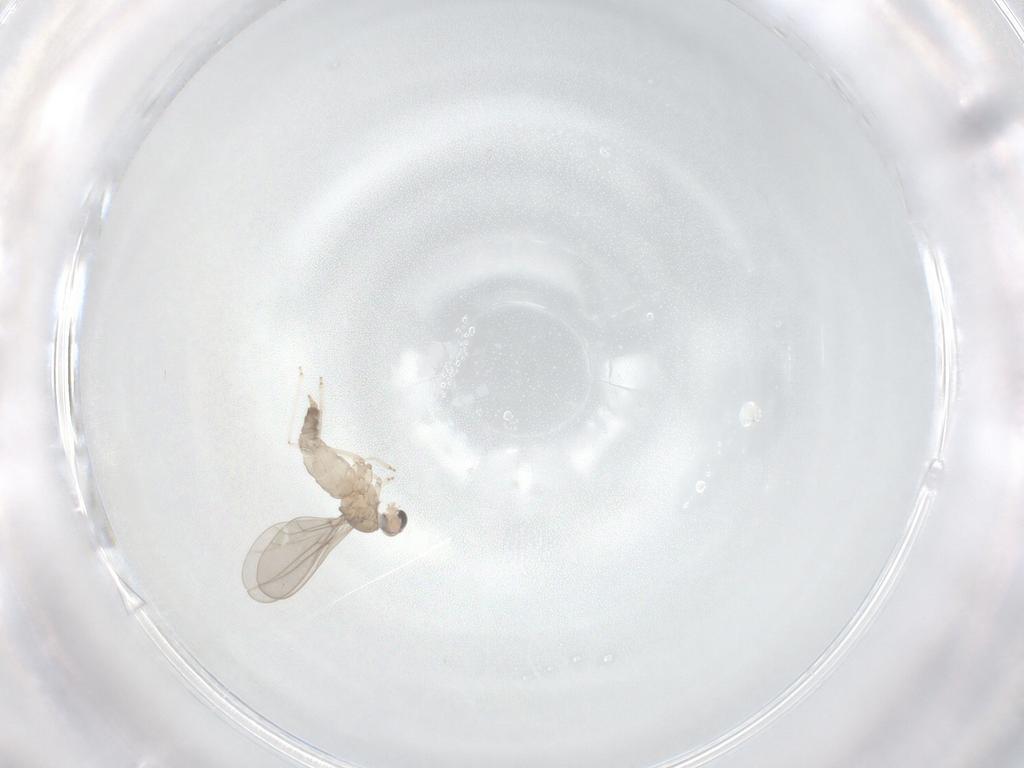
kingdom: Animalia
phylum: Arthropoda
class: Insecta
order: Diptera
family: Cecidomyiidae
